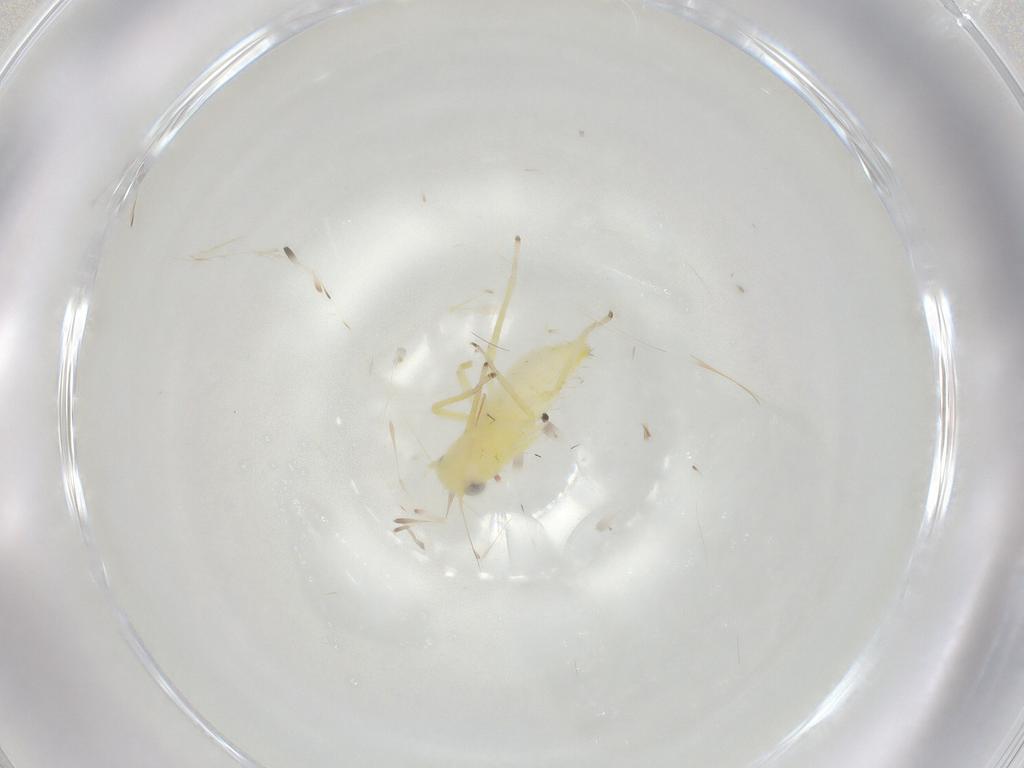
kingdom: Animalia
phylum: Arthropoda
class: Insecta
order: Hemiptera
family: Cicadellidae
